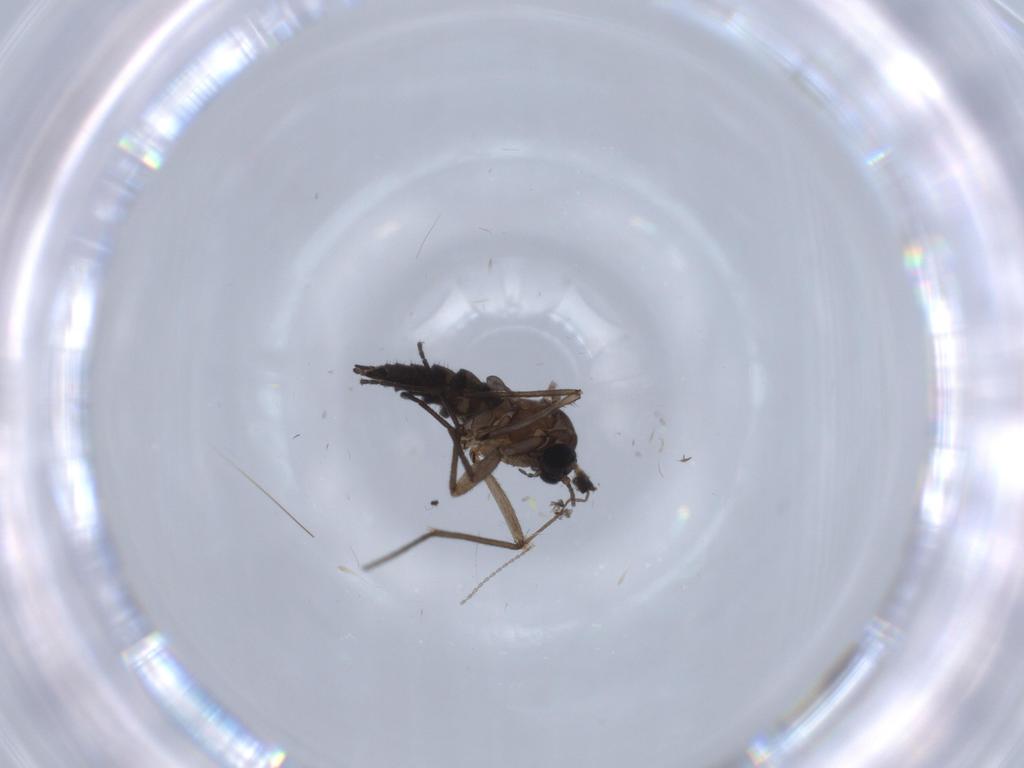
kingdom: Animalia
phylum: Arthropoda
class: Insecta
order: Diptera
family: Sciaridae
